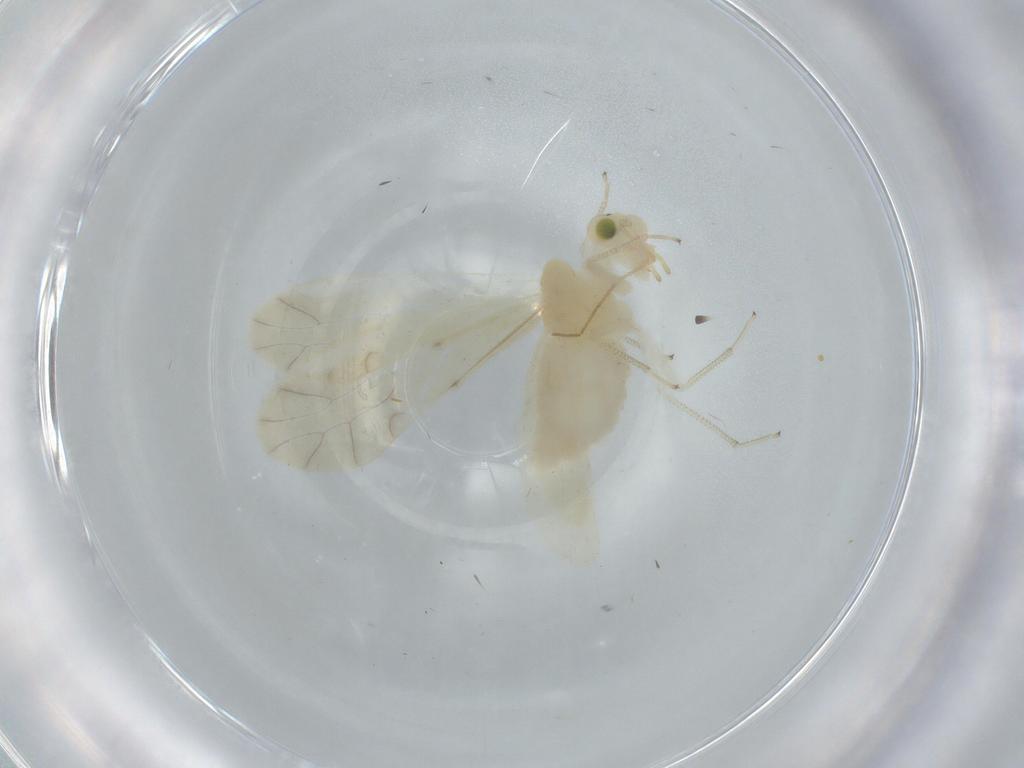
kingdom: Animalia
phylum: Arthropoda
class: Insecta
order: Psocodea
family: Caeciliusidae
